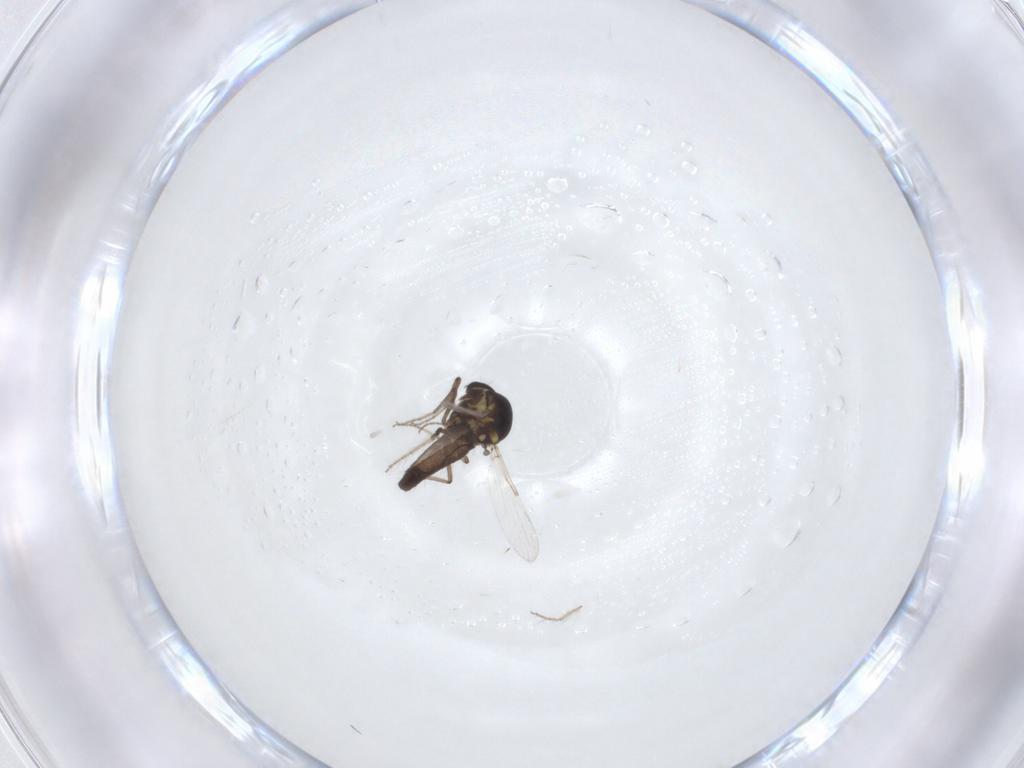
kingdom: Animalia
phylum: Arthropoda
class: Insecta
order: Diptera
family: Ceratopogonidae
